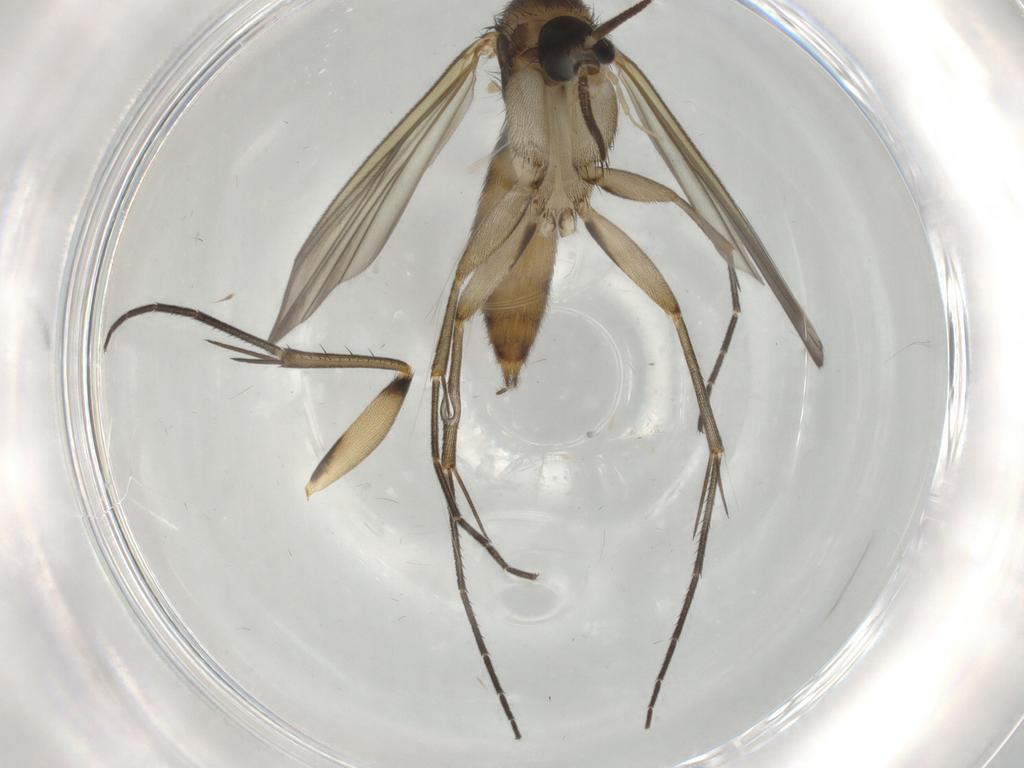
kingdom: Animalia
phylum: Arthropoda
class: Insecta
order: Diptera
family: Mycetophilidae
